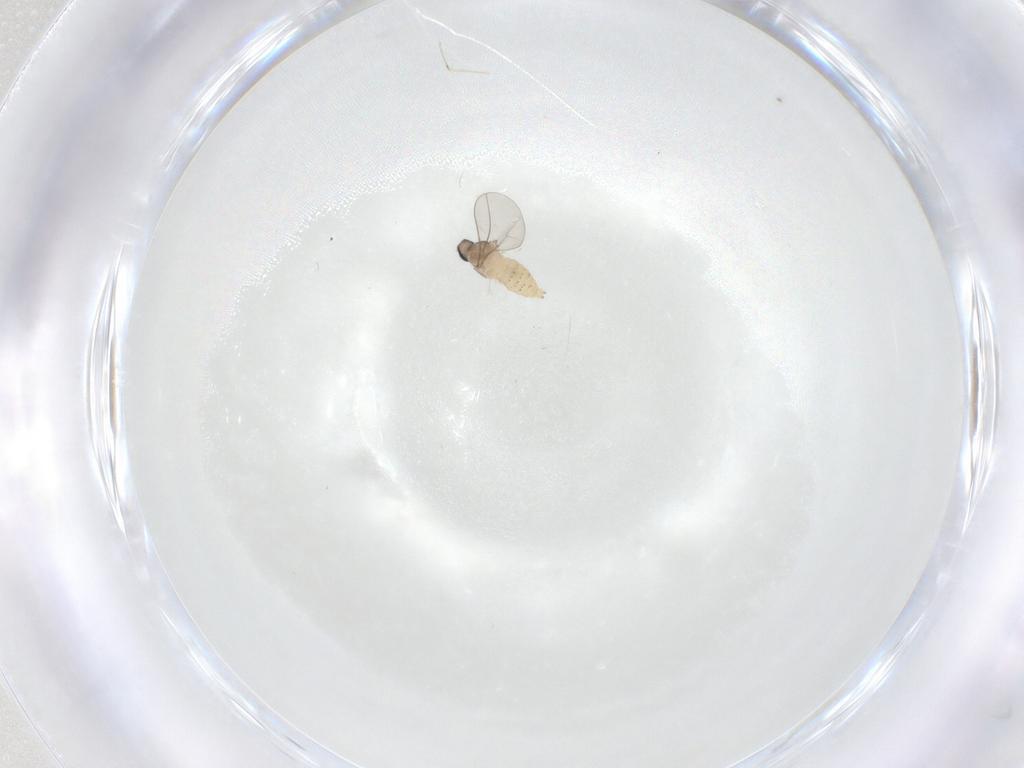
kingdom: Animalia
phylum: Arthropoda
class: Insecta
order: Diptera
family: Cecidomyiidae
